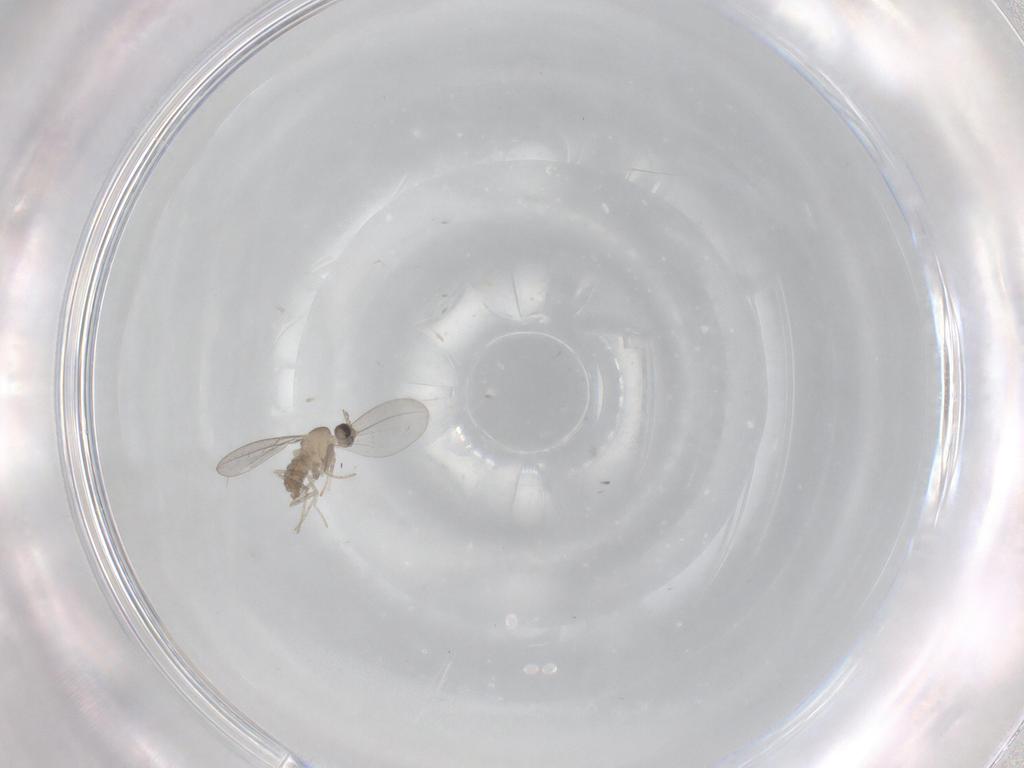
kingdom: Animalia
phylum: Arthropoda
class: Insecta
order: Diptera
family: Cecidomyiidae
